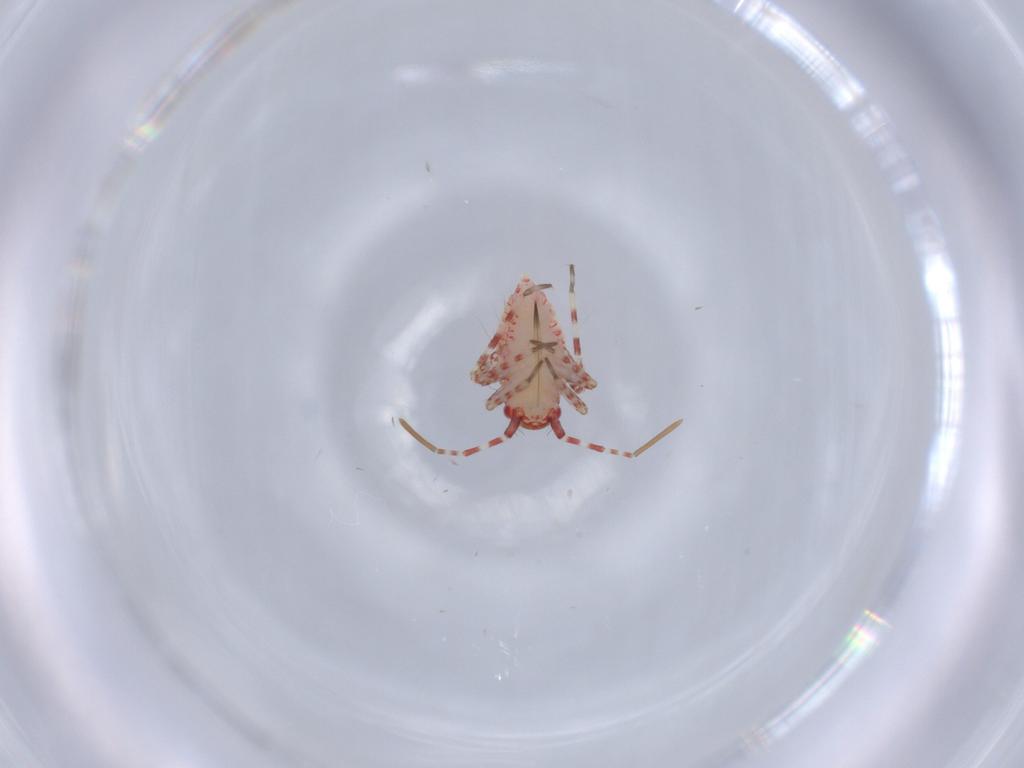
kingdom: Animalia
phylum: Arthropoda
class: Insecta
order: Hemiptera
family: Miridae
